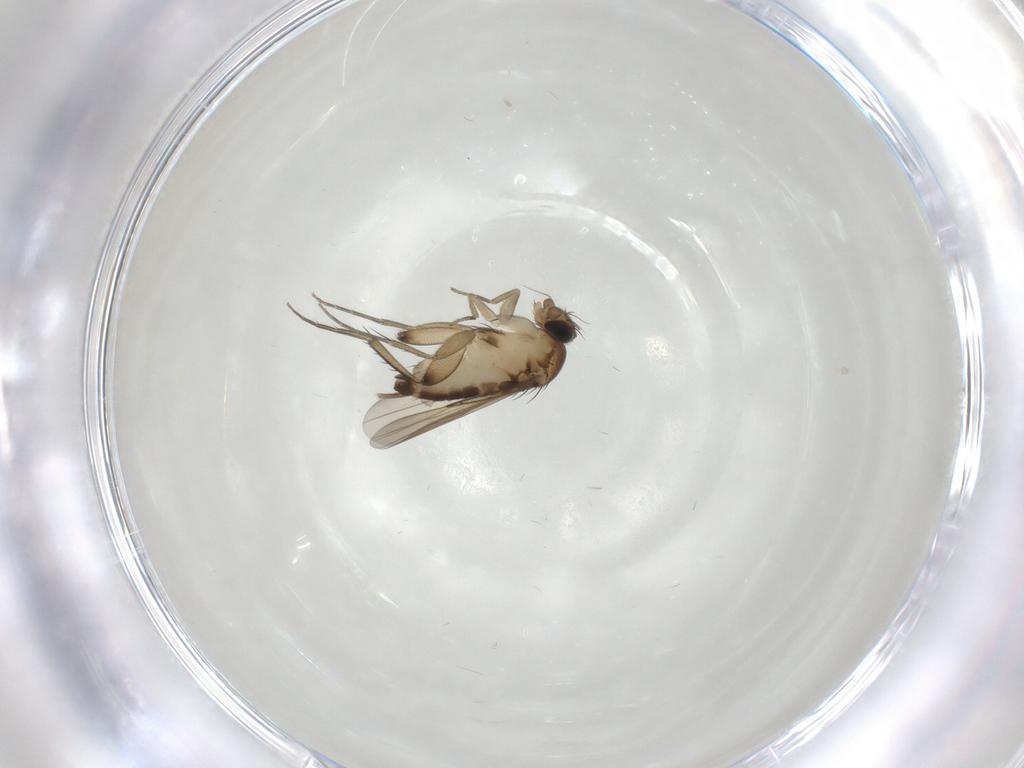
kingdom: Animalia
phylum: Arthropoda
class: Insecta
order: Diptera
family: Phoridae
